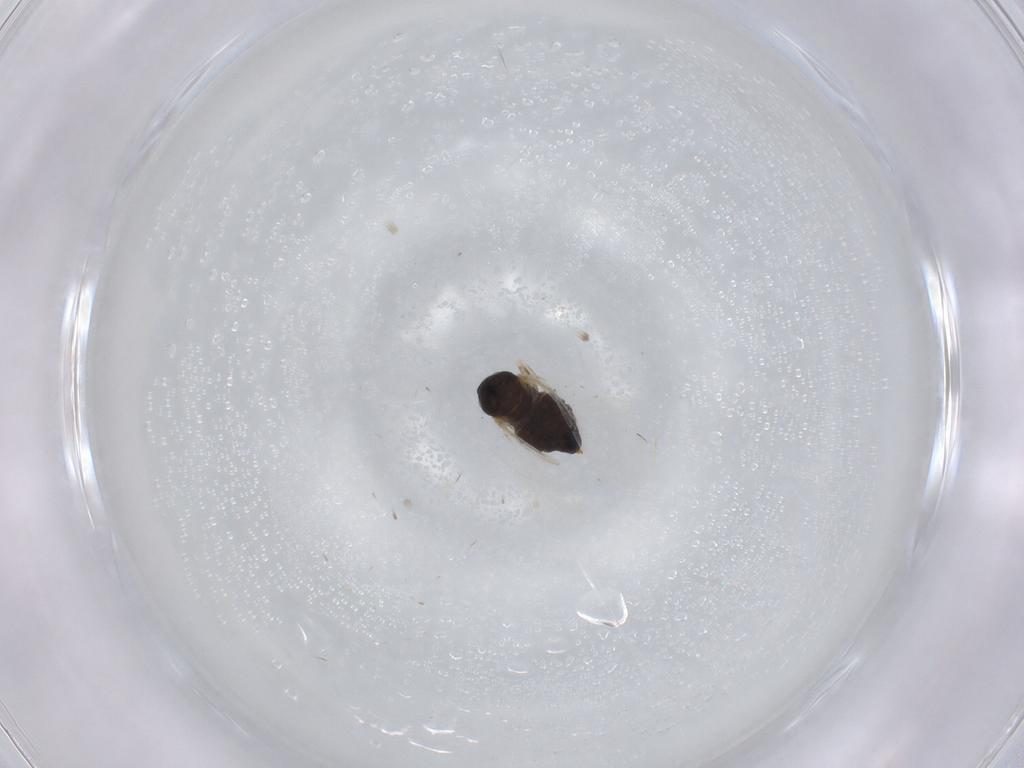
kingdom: Animalia
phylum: Arthropoda
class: Insecta
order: Diptera
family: Cecidomyiidae
